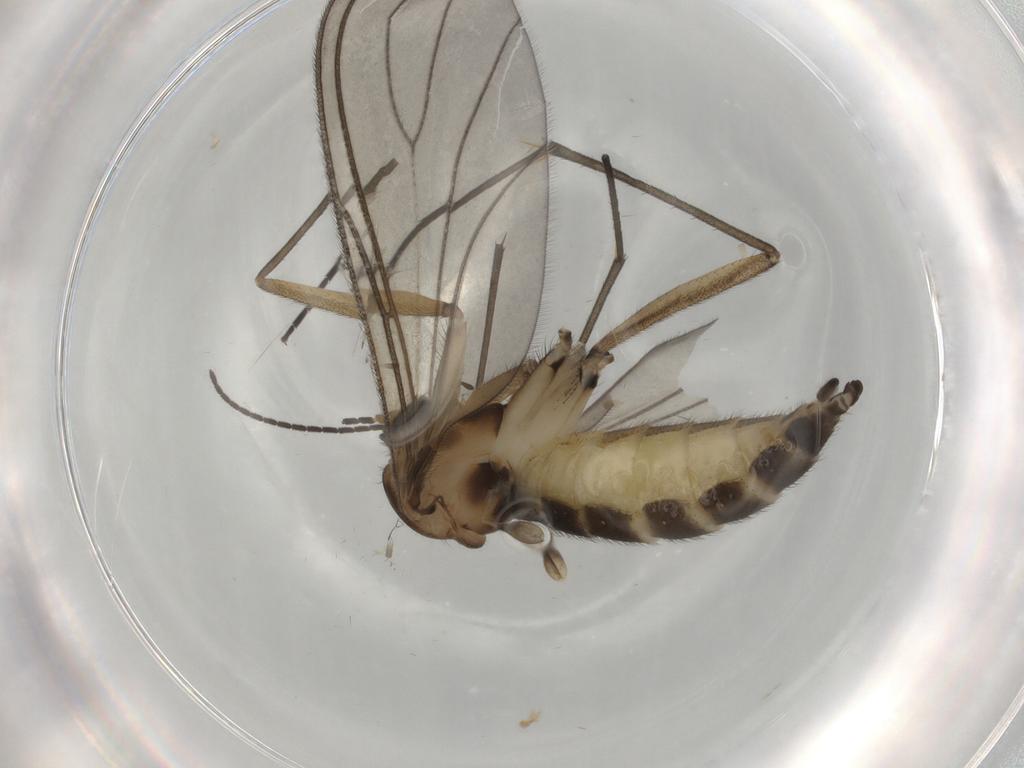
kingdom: Animalia
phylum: Arthropoda
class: Insecta
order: Diptera
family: Sciaridae
